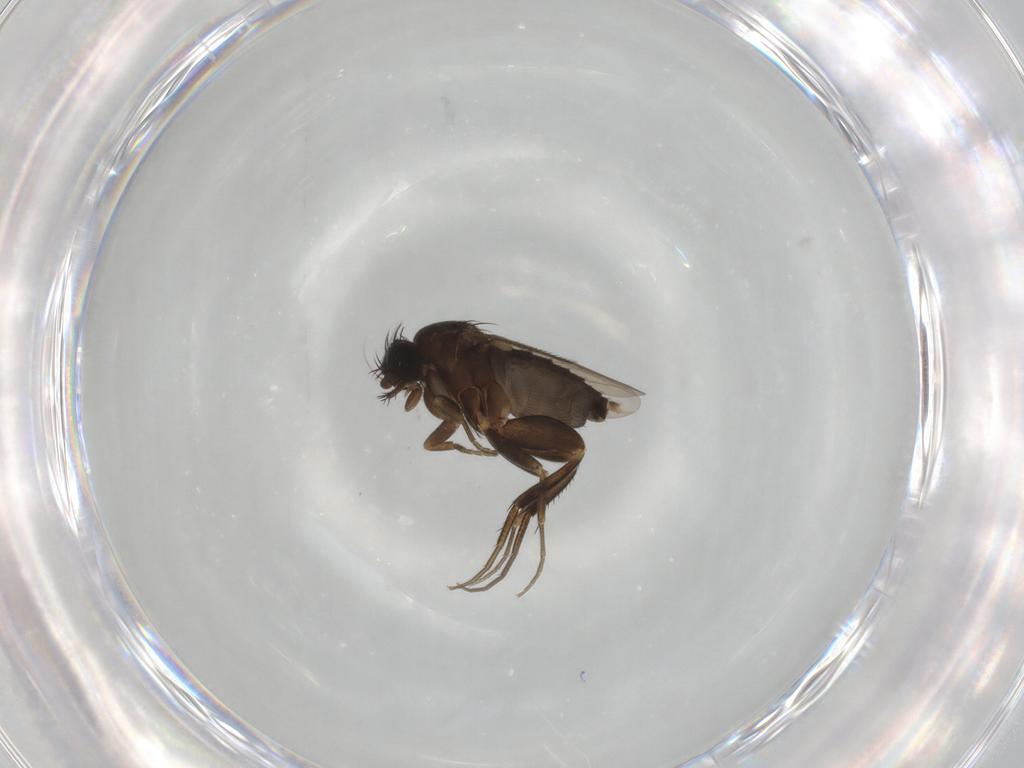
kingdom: Animalia
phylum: Arthropoda
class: Insecta
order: Diptera
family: Phoridae
